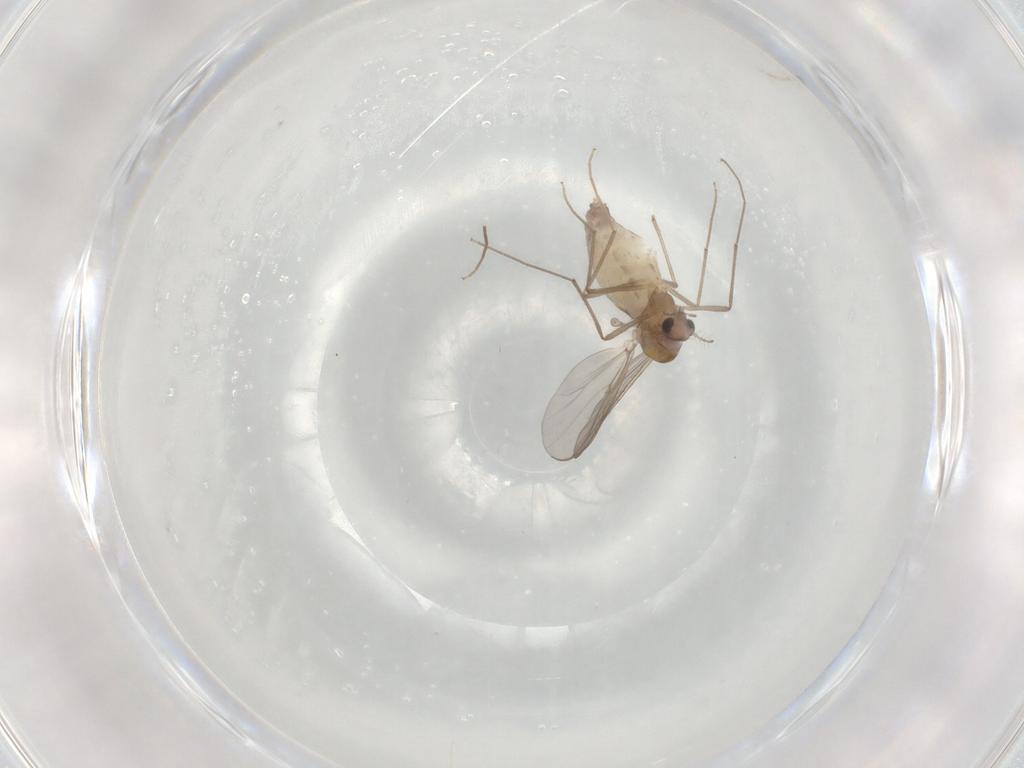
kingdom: Animalia
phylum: Arthropoda
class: Insecta
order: Diptera
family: Chironomidae
